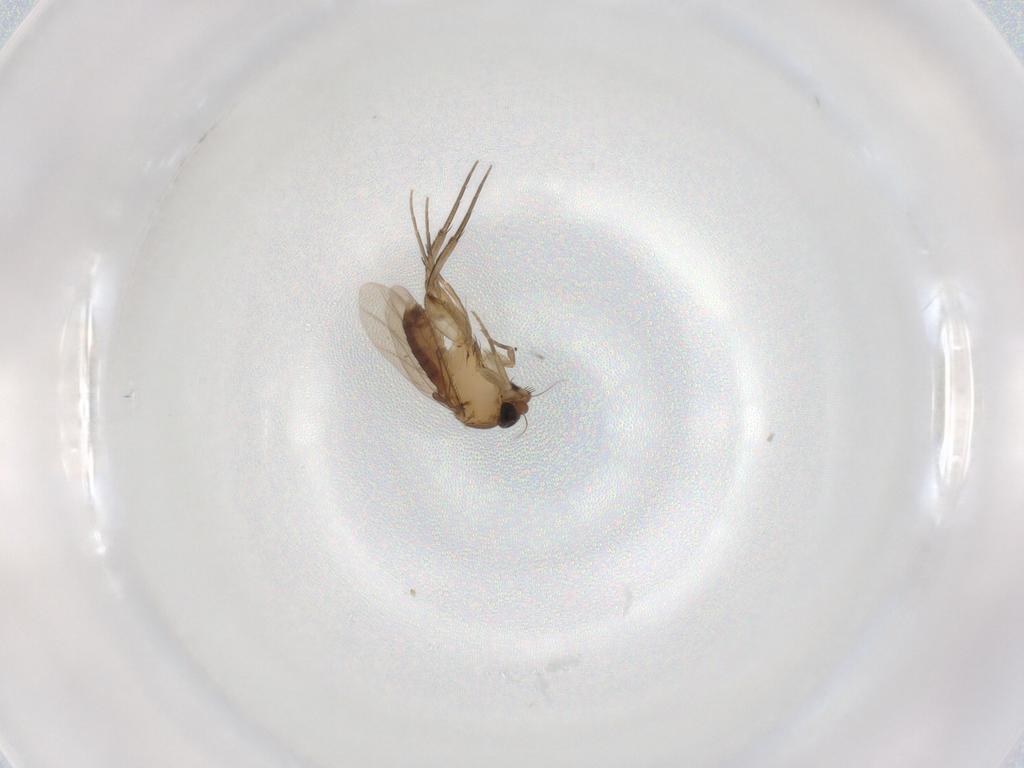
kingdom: Animalia
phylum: Arthropoda
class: Insecta
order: Diptera
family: Phoridae
